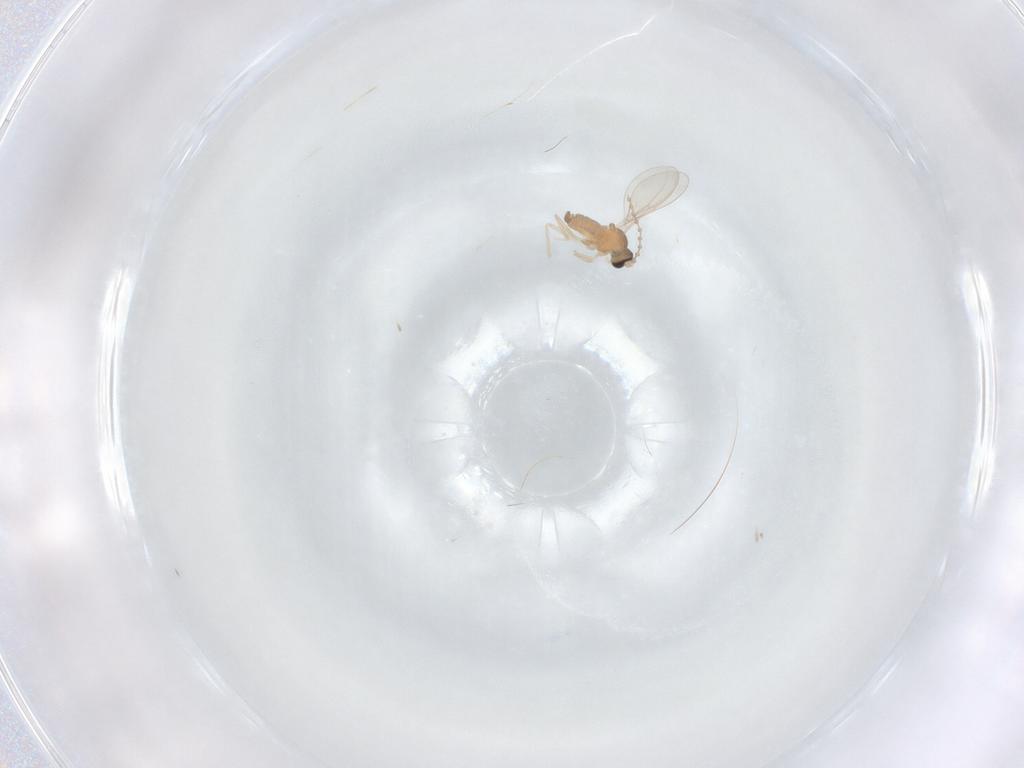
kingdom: Animalia
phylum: Arthropoda
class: Insecta
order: Diptera
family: Cecidomyiidae
